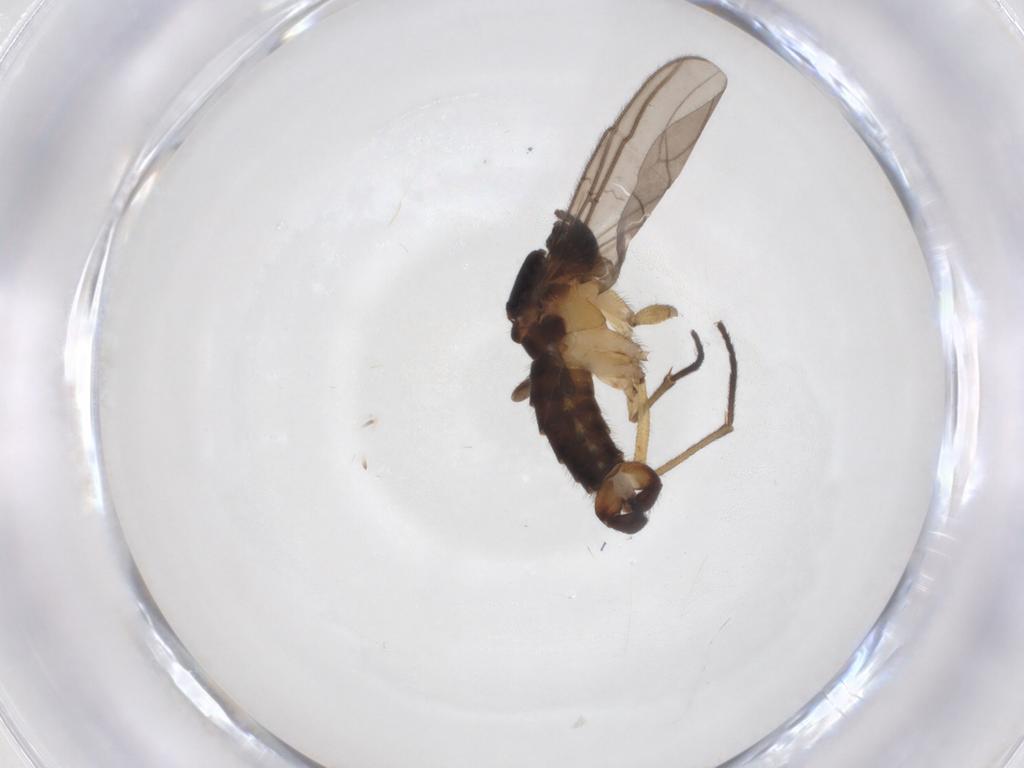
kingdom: Animalia
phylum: Arthropoda
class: Insecta
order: Diptera
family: Sciaridae
